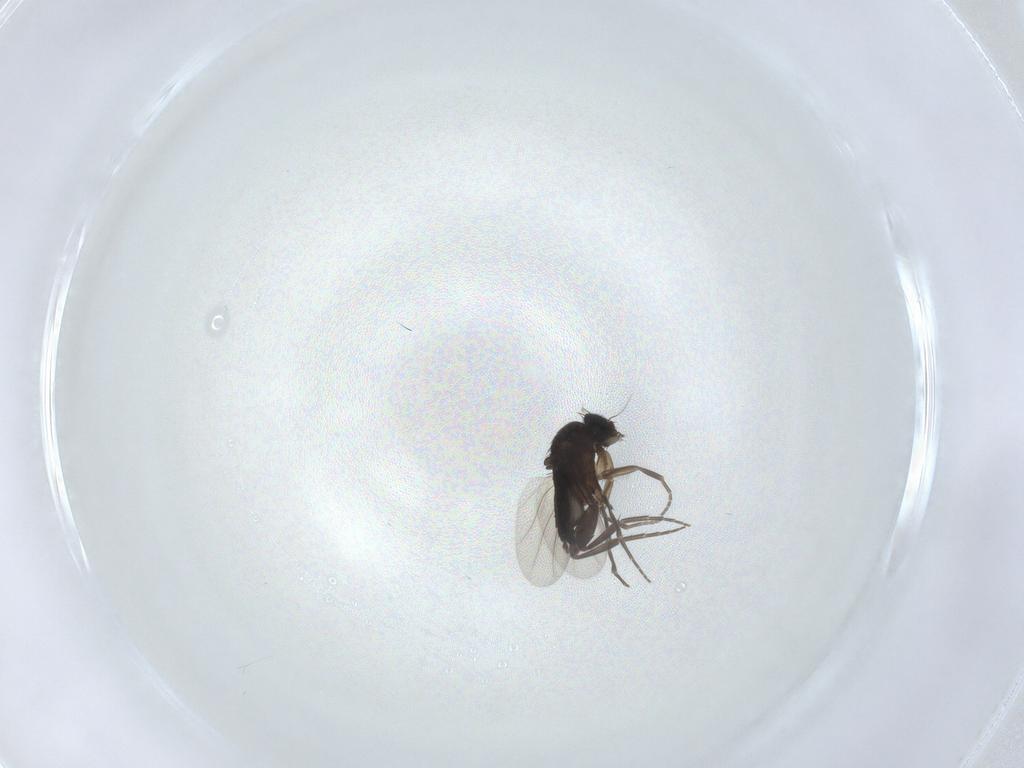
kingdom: Animalia
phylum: Arthropoda
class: Insecta
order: Diptera
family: Phoridae
